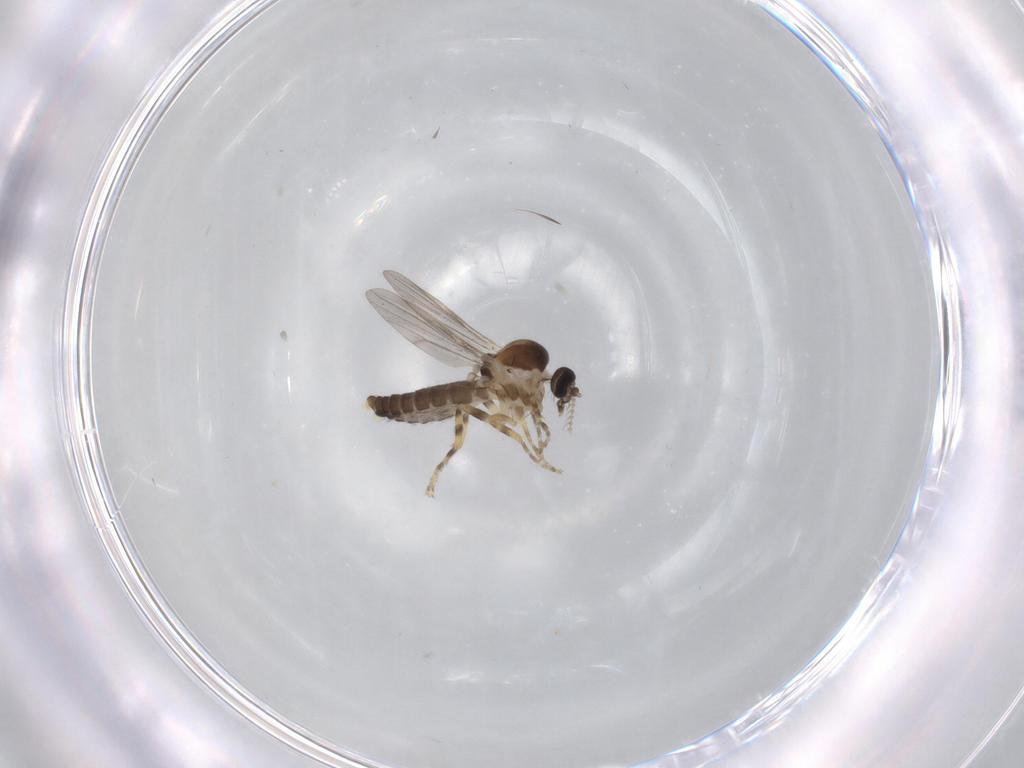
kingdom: Animalia
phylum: Arthropoda
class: Insecta
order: Diptera
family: Ceratopogonidae
